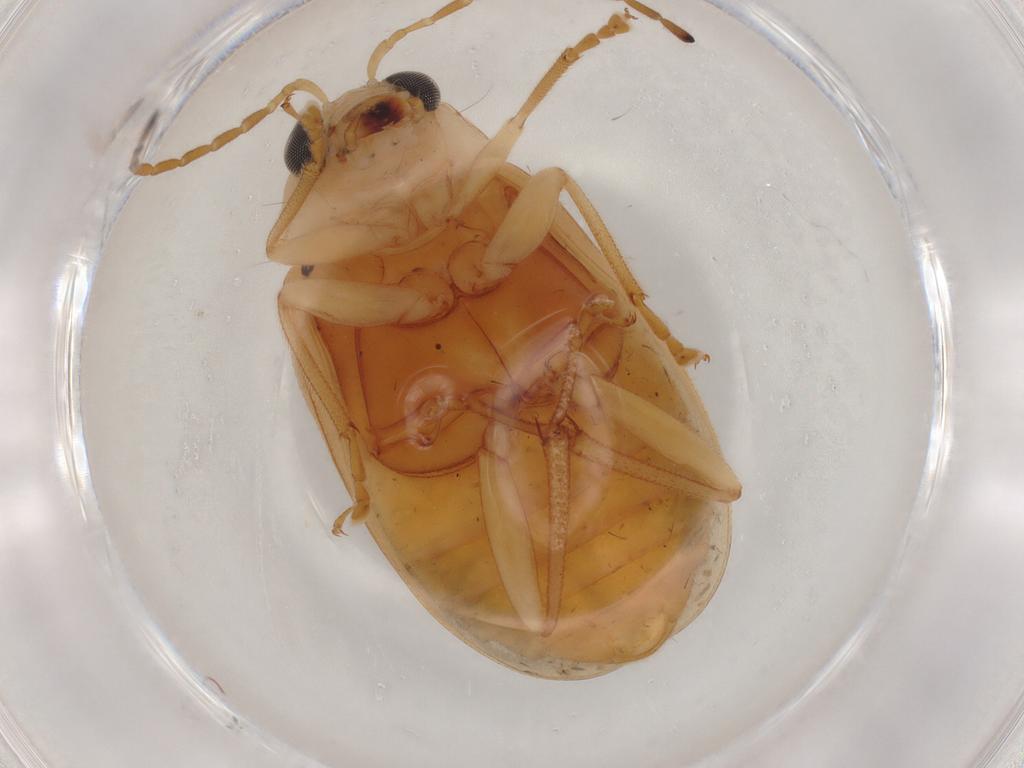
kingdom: Animalia
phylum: Arthropoda
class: Insecta
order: Coleoptera
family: Chrysomelidae
